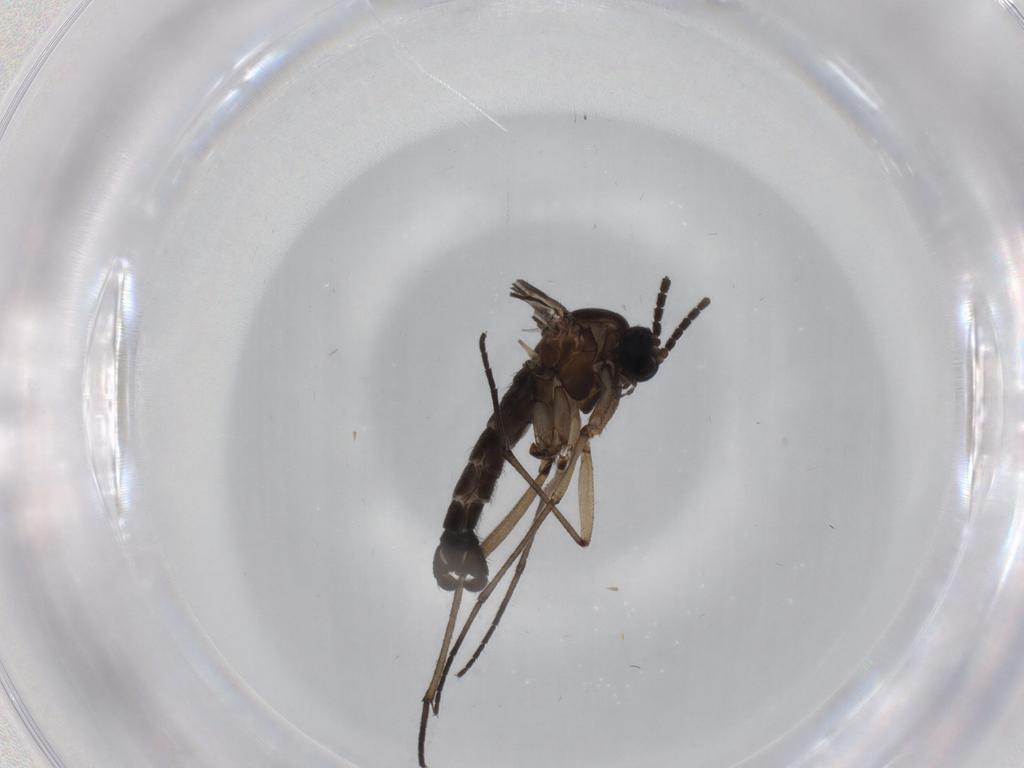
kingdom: Animalia
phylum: Arthropoda
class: Insecta
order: Diptera
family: Sciaridae
